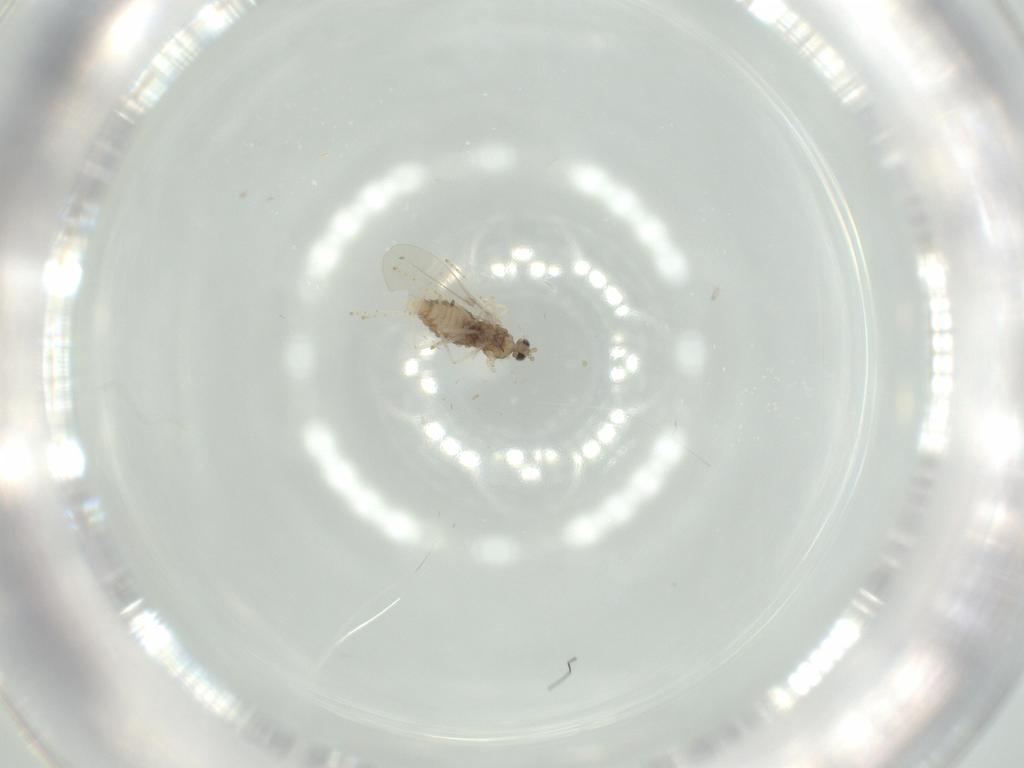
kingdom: Animalia
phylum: Arthropoda
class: Insecta
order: Diptera
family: Cecidomyiidae
